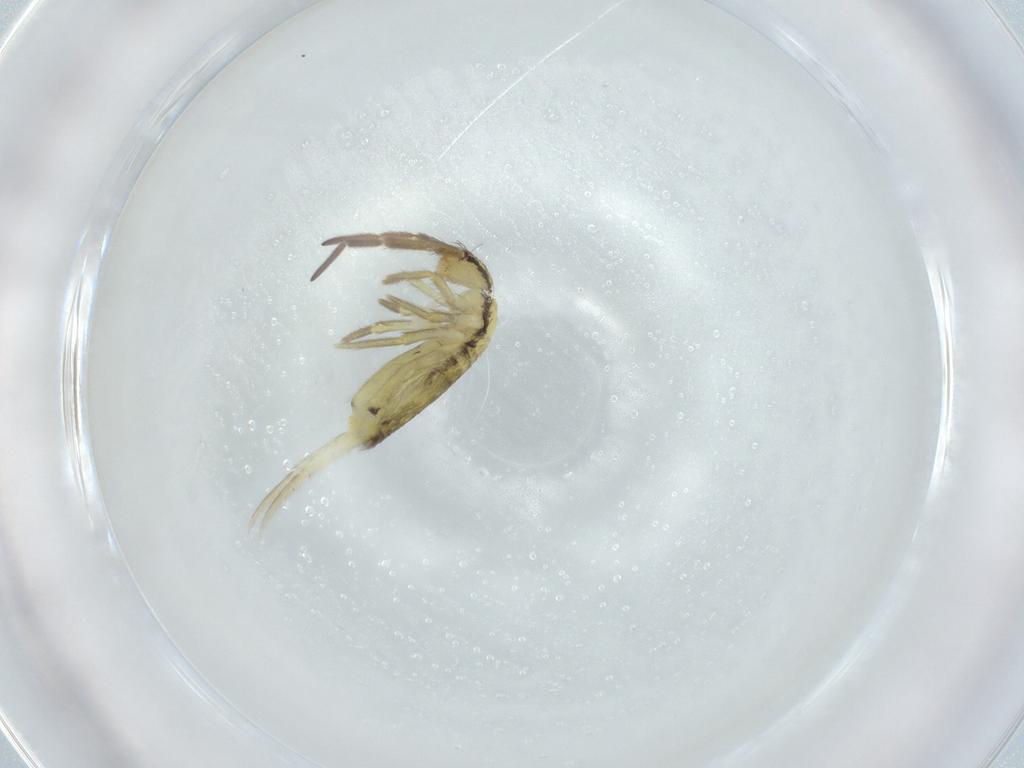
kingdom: Animalia
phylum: Arthropoda
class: Collembola
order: Entomobryomorpha
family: Entomobryidae
